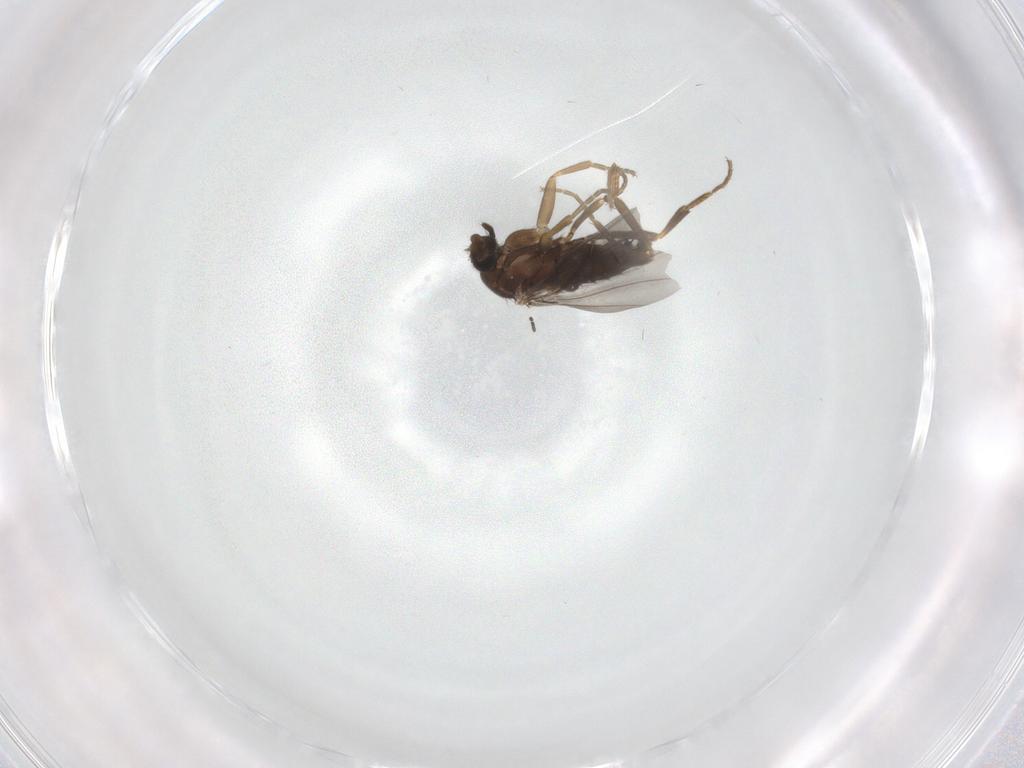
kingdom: Animalia
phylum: Arthropoda
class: Insecta
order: Diptera
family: Sciaridae
